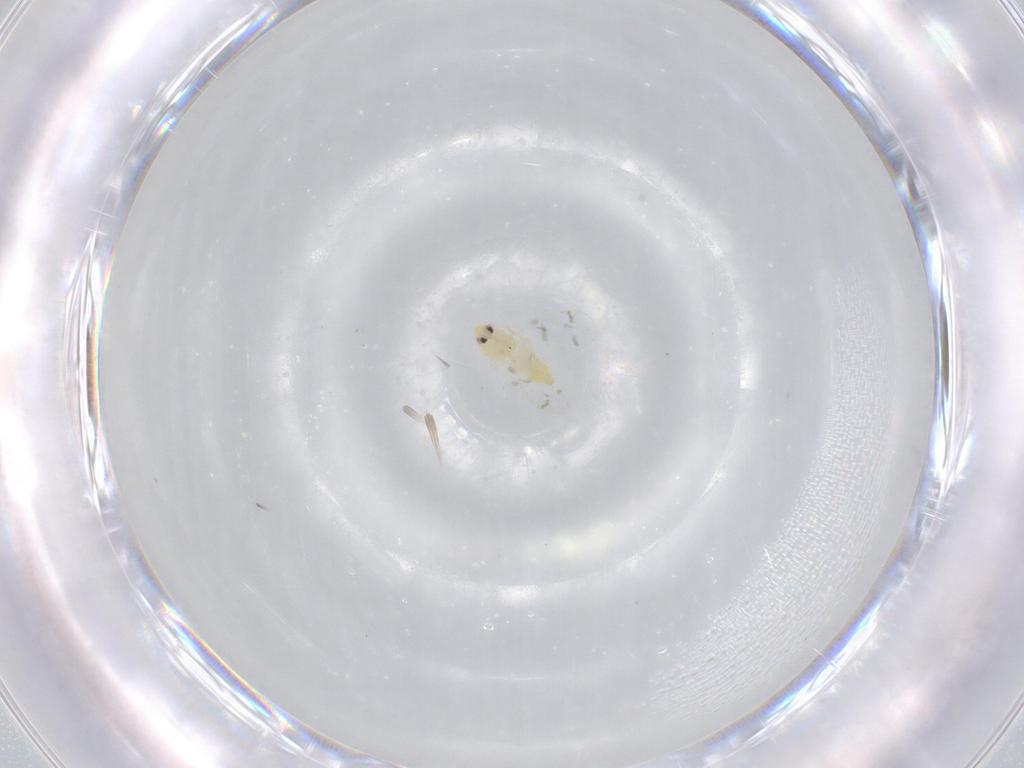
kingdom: Animalia
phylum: Arthropoda
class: Insecta
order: Hemiptera
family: Aleyrodidae
